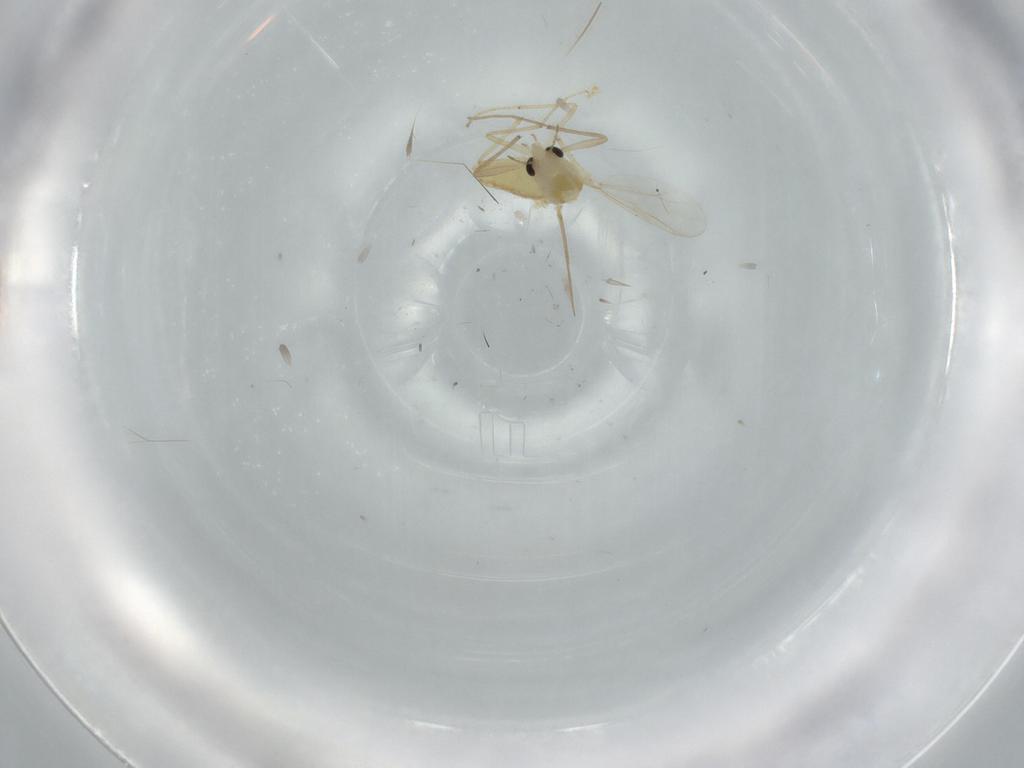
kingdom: Animalia
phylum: Arthropoda
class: Insecta
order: Diptera
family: Chironomidae
